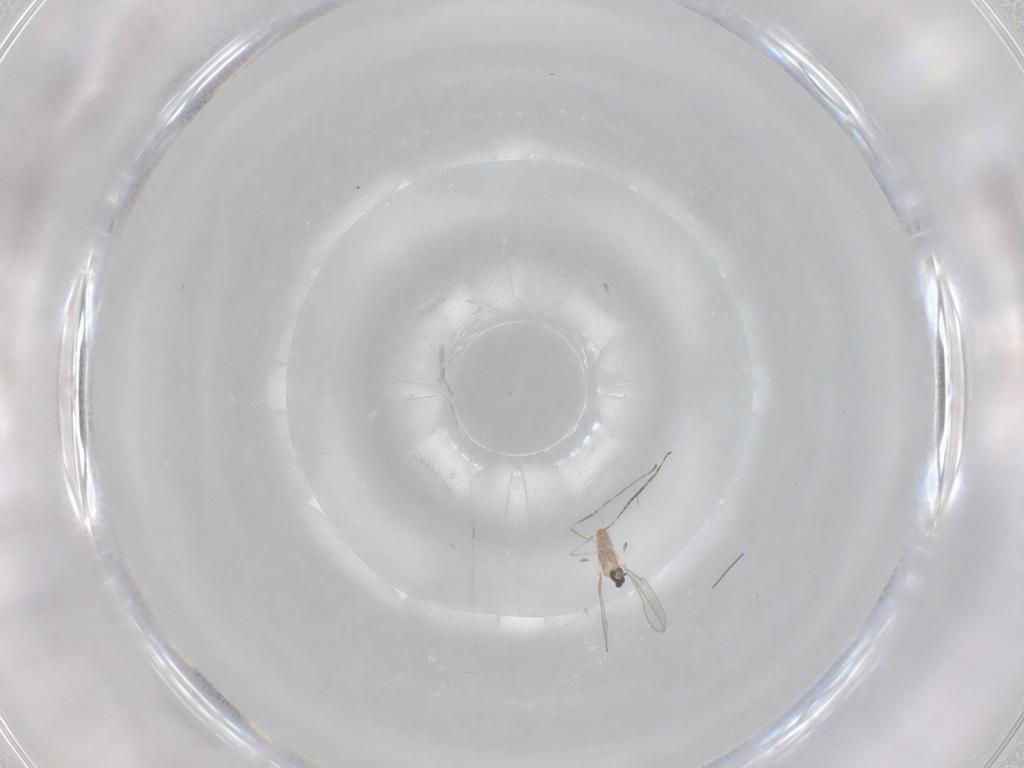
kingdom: Animalia
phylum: Arthropoda
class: Insecta
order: Diptera
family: Cecidomyiidae
